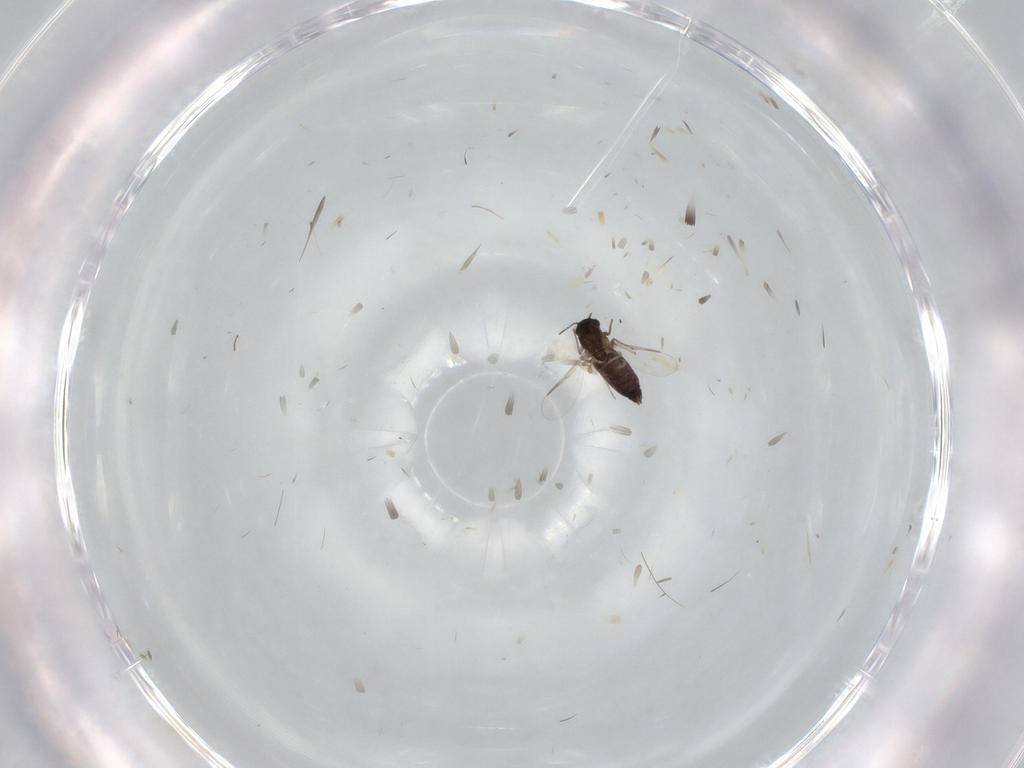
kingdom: Animalia
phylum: Arthropoda
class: Insecta
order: Diptera
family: Chironomidae
